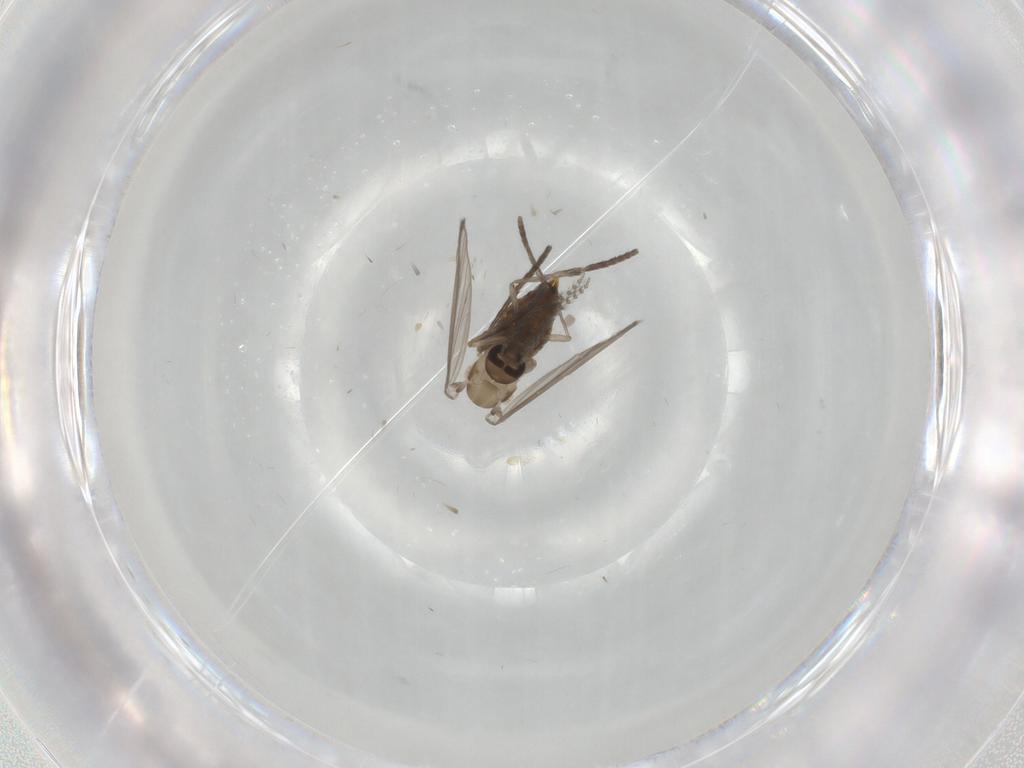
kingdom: Animalia
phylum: Arthropoda
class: Insecta
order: Diptera
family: Psychodidae
